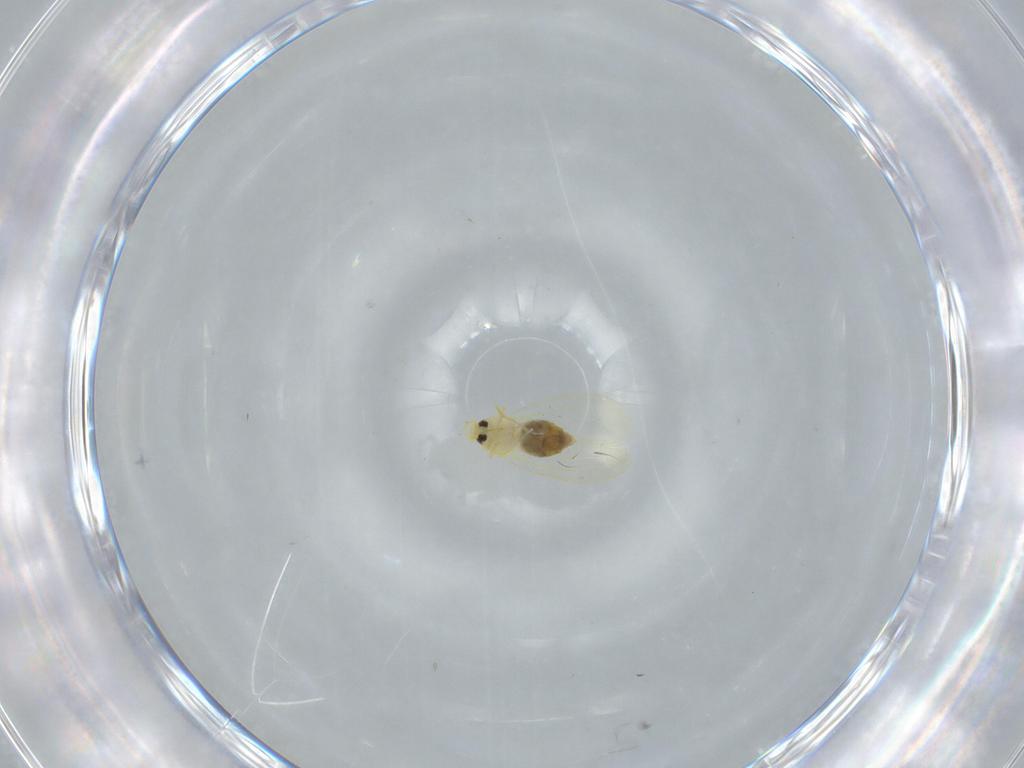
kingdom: Animalia
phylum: Arthropoda
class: Insecta
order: Hemiptera
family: Aleyrodidae
